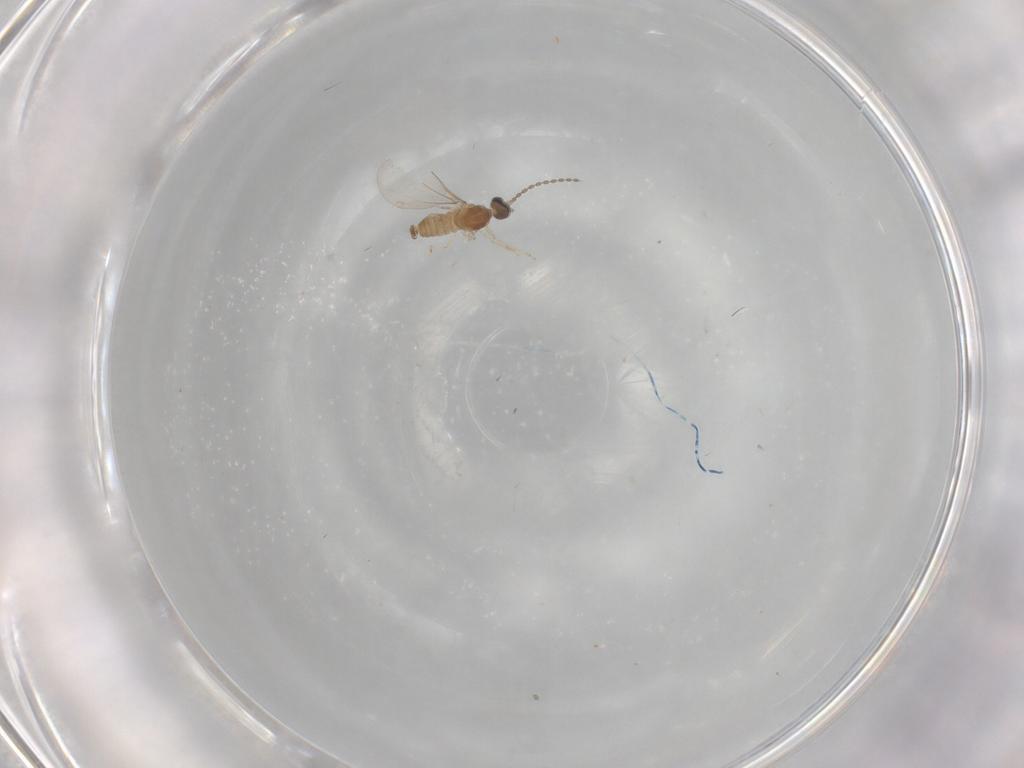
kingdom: Animalia
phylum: Arthropoda
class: Insecta
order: Diptera
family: Cecidomyiidae
